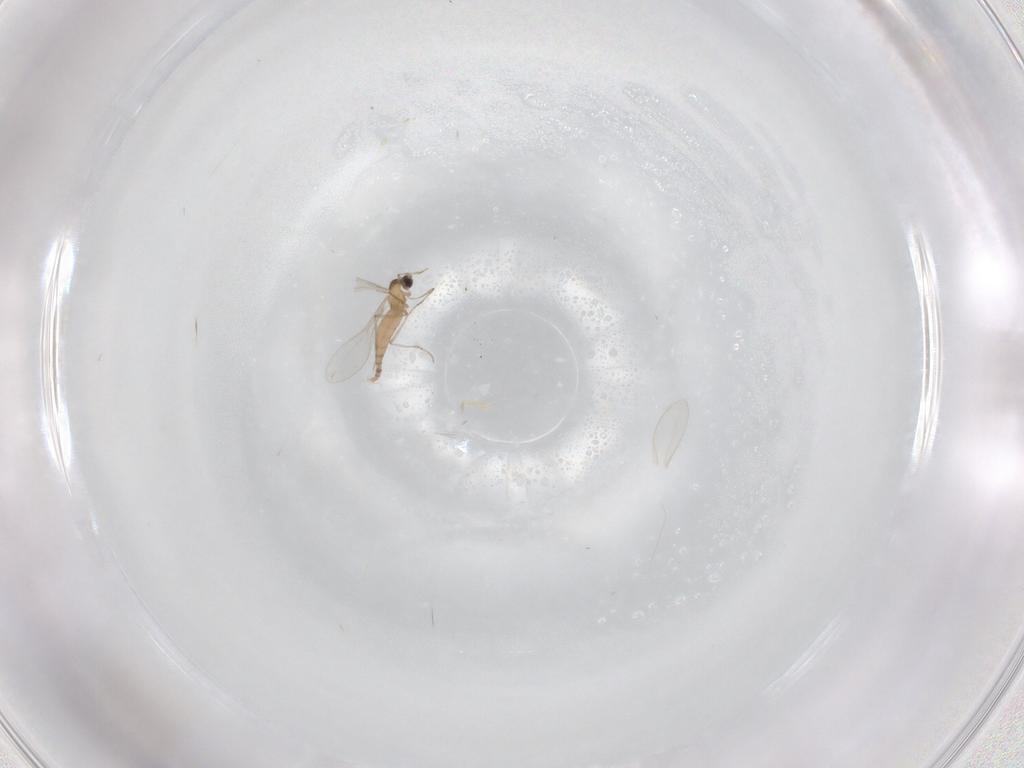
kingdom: Animalia
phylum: Arthropoda
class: Insecta
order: Diptera
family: Cecidomyiidae
